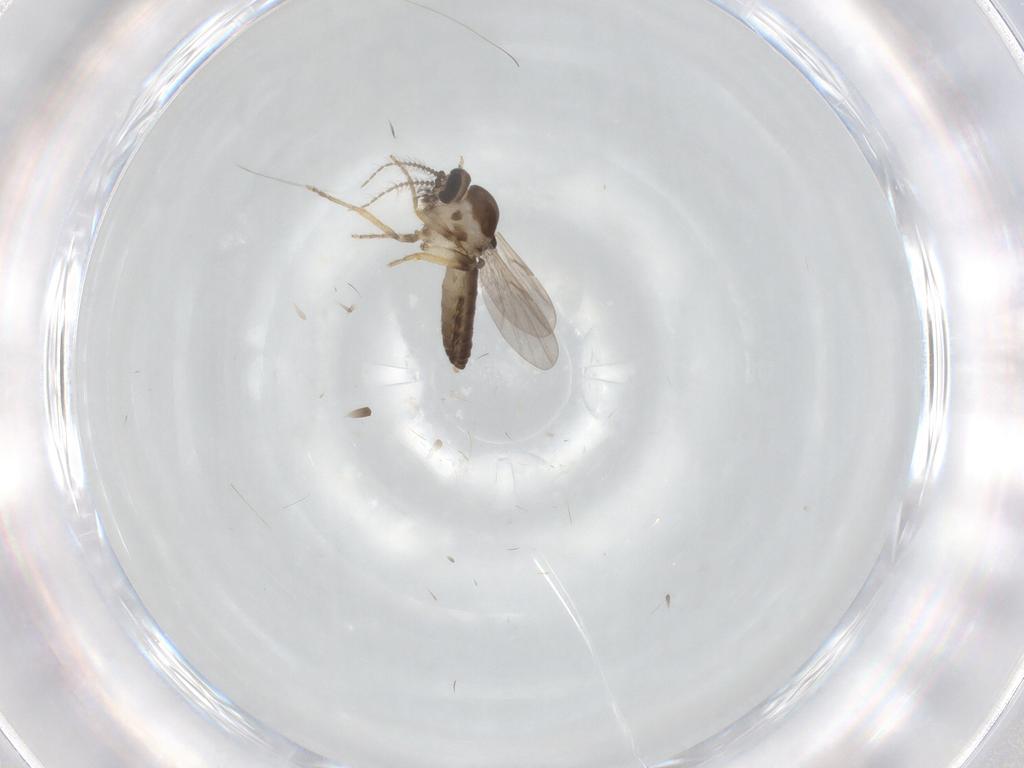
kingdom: Animalia
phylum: Arthropoda
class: Insecta
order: Diptera
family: Ceratopogonidae
